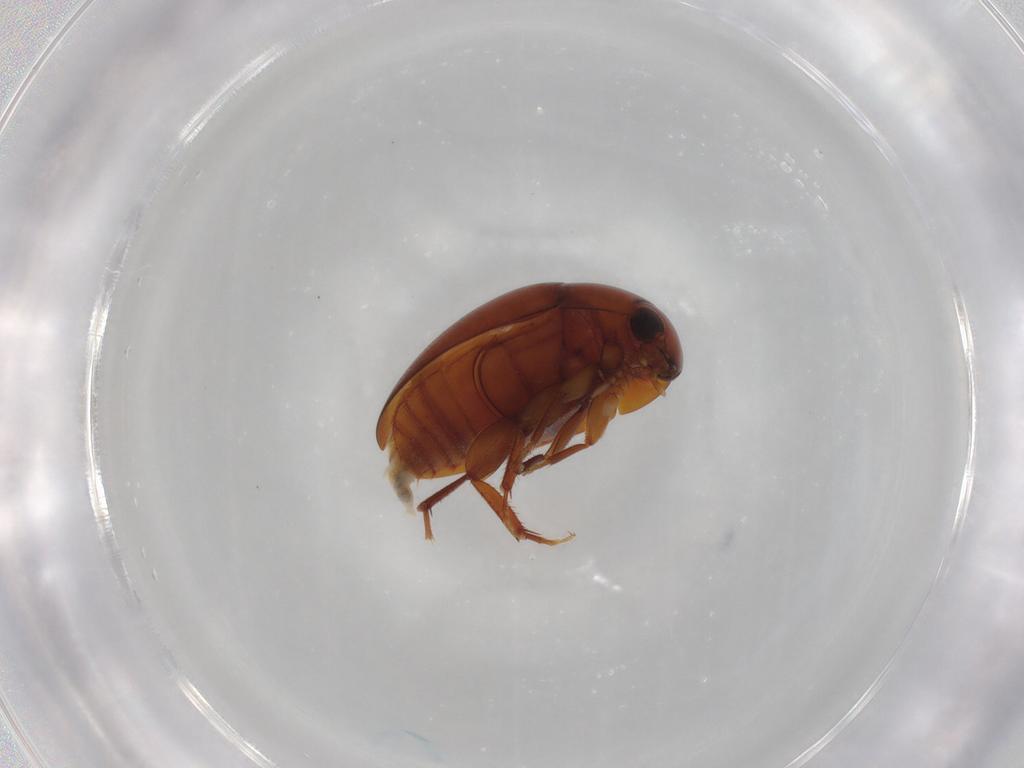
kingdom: Animalia
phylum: Arthropoda
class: Insecta
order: Coleoptera
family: Phalacridae
